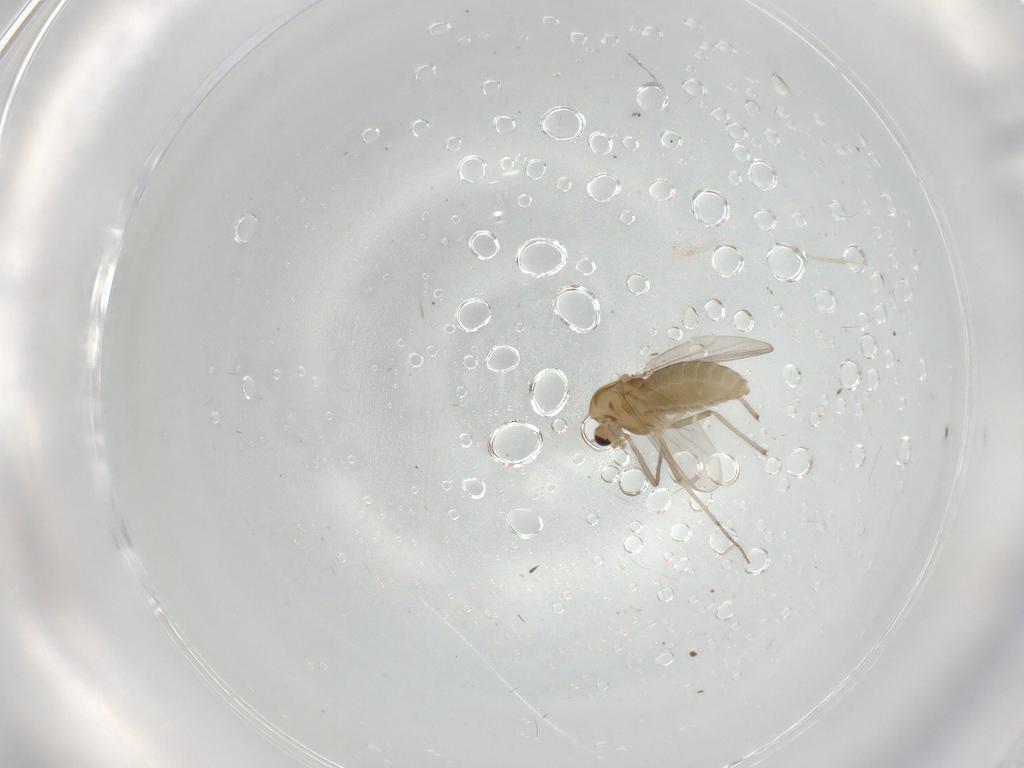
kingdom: Animalia
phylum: Arthropoda
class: Insecta
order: Diptera
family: Chironomidae
